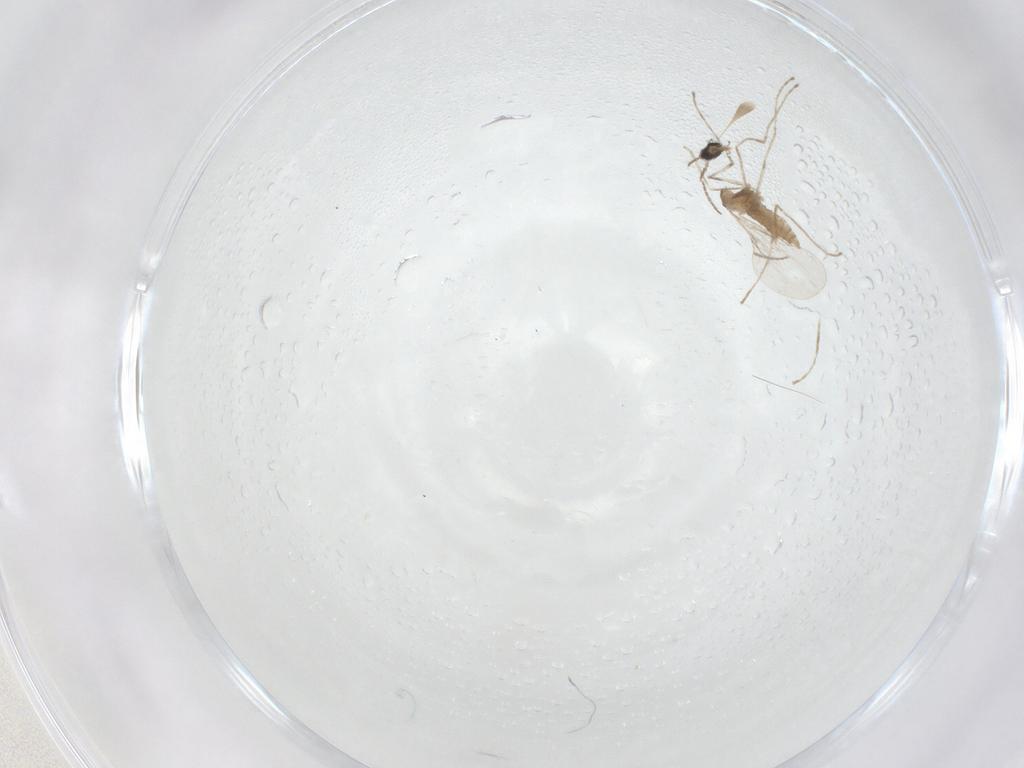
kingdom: Animalia
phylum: Arthropoda
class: Insecta
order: Diptera
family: Cecidomyiidae
